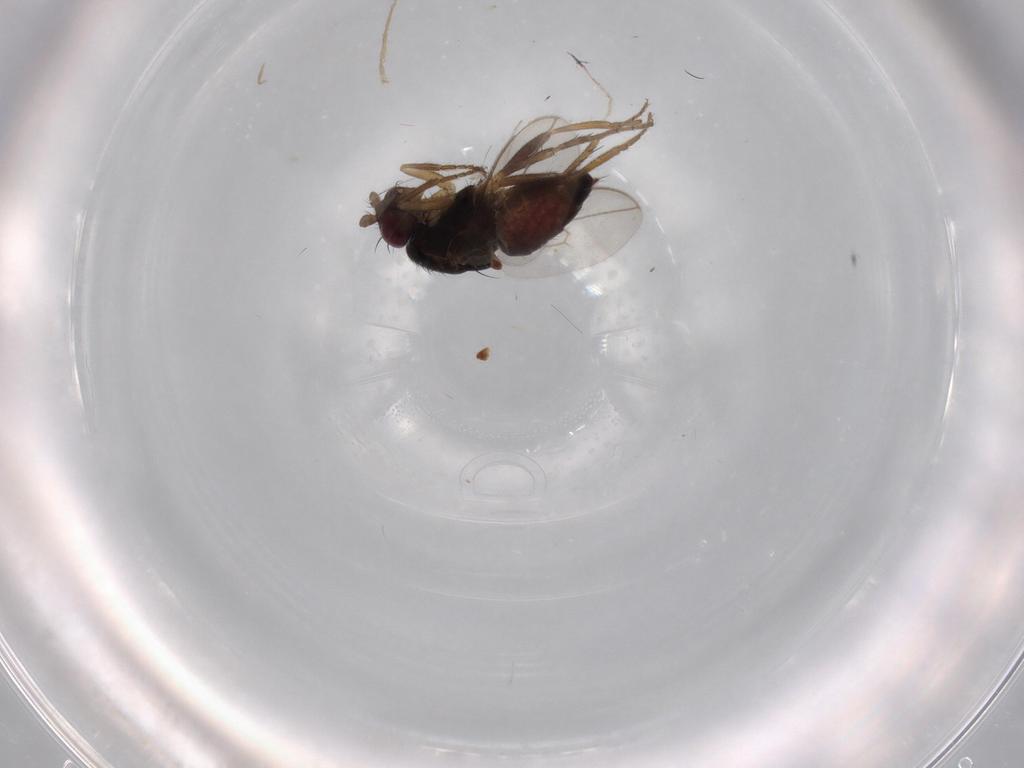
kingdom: Animalia
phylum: Arthropoda
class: Insecta
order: Diptera
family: Sphaeroceridae
